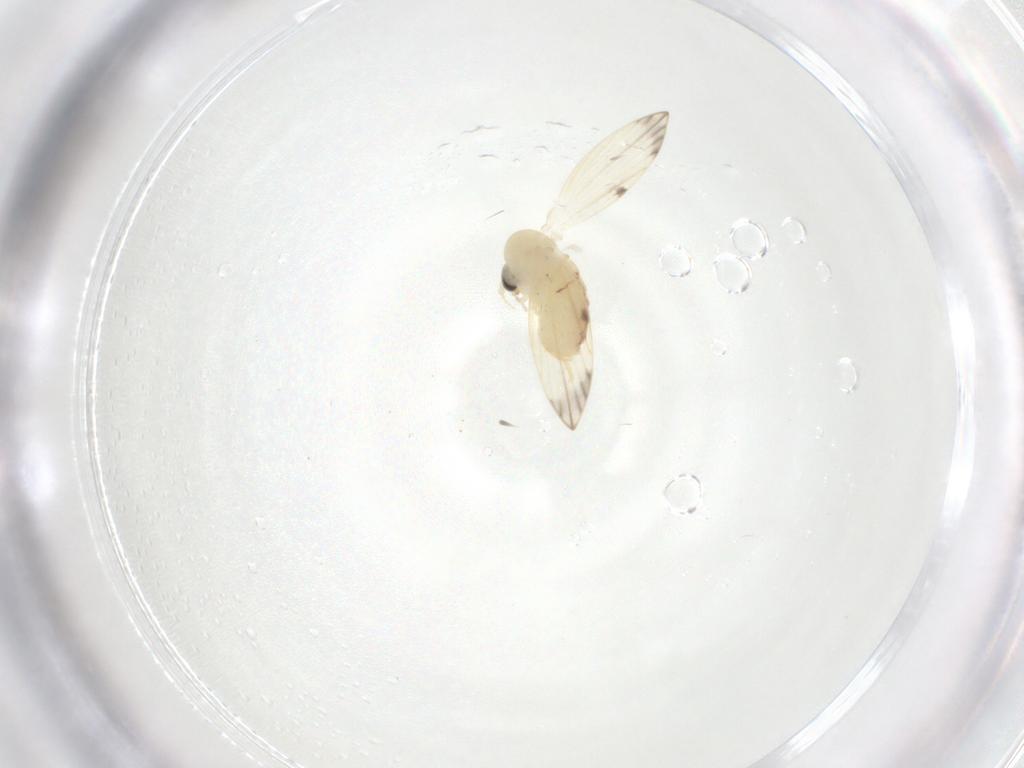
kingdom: Animalia
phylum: Arthropoda
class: Insecta
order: Diptera
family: Psychodidae
